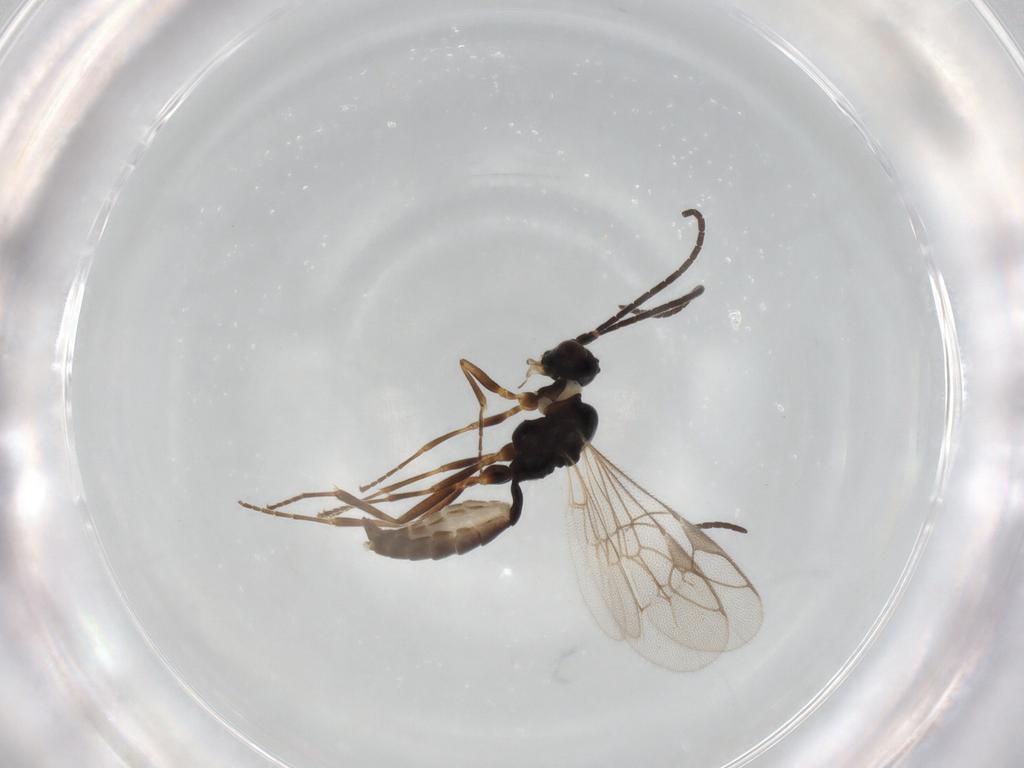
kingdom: Animalia
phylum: Arthropoda
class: Insecta
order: Hymenoptera
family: Ichneumonidae
